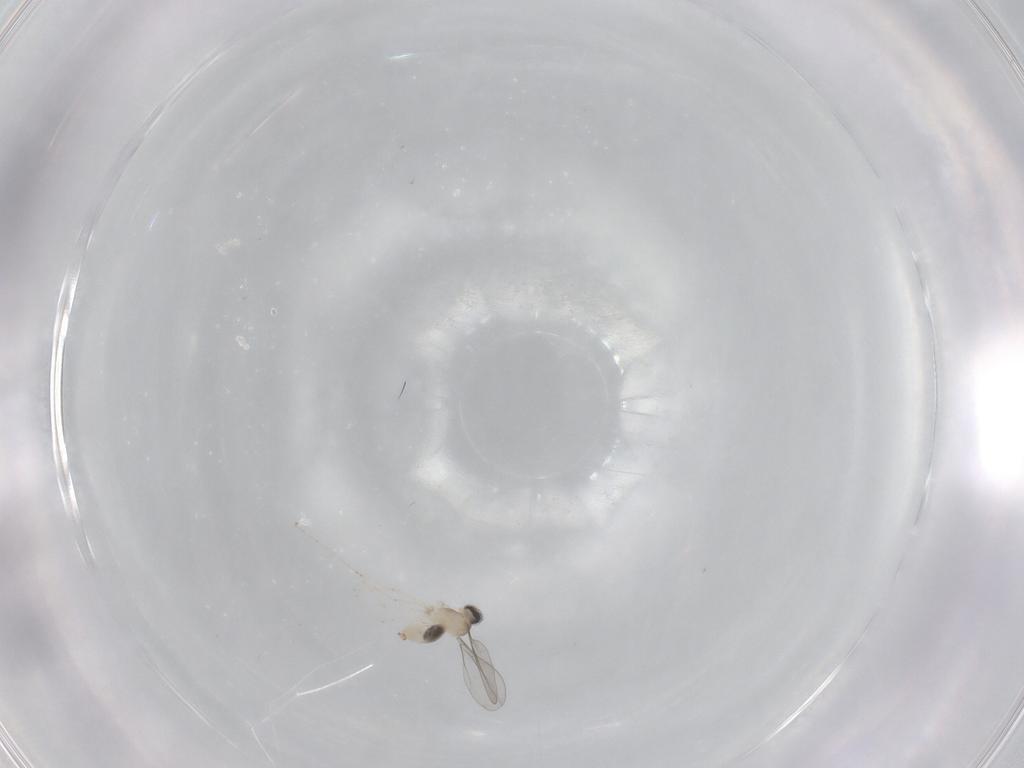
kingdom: Animalia
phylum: Arthropoda
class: Insecta
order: Diptera
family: Cecidomyiidae
